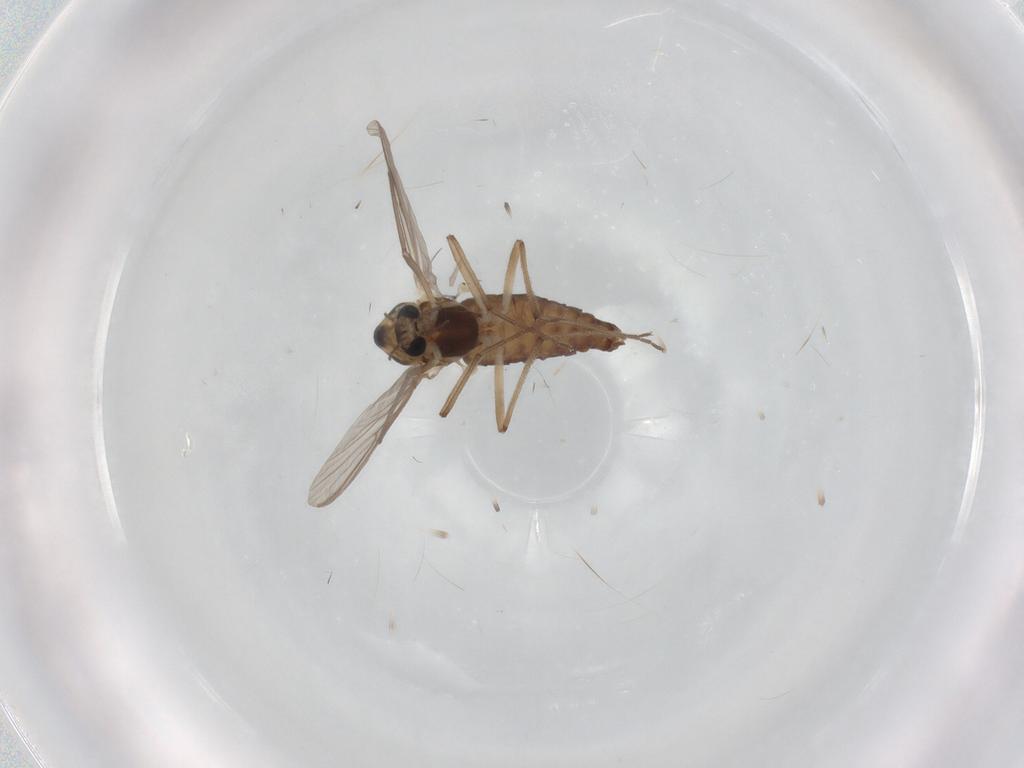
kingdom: Animalia
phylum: Arthropoda
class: Insecta
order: Diptera
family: Chironomidae
